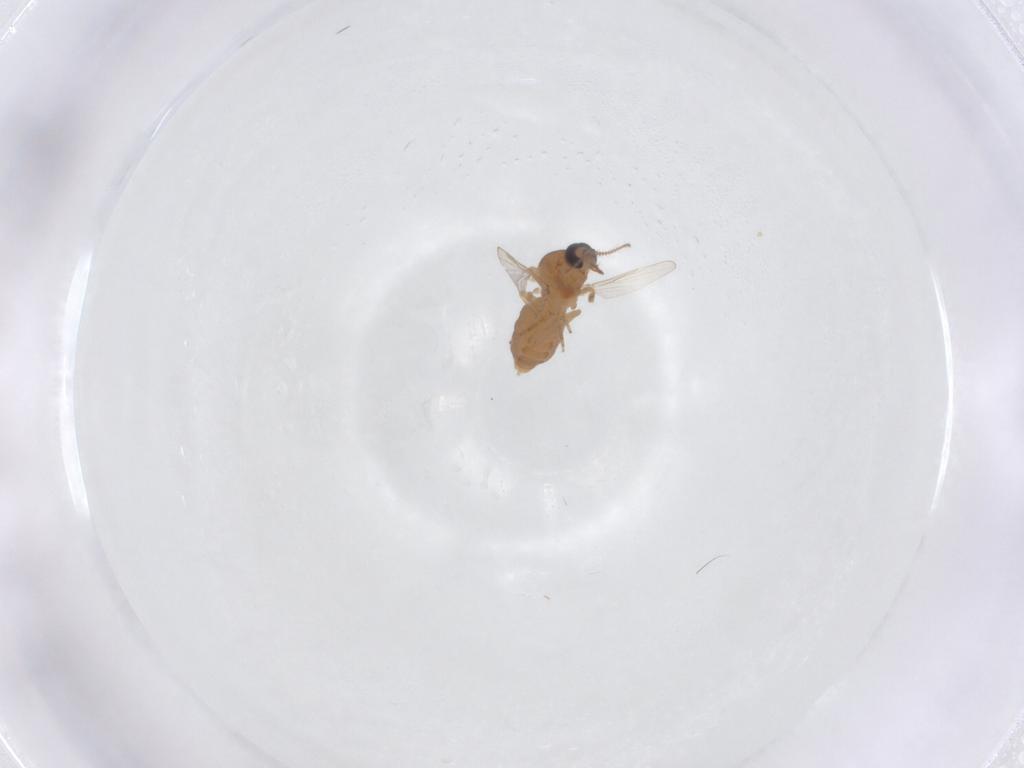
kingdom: Animalia
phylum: Arthropoda
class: Insecta
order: Diptera
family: Ceratopogonidae
